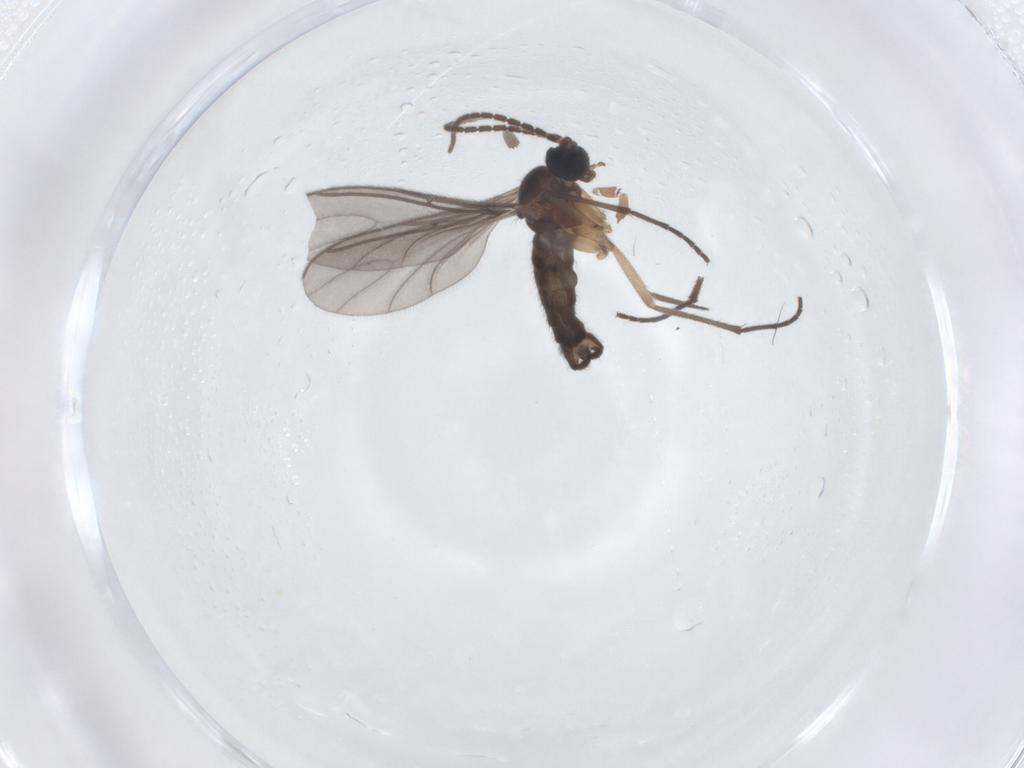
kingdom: Animalia
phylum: Arthropoda
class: Insecta
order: Diptera
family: Ceratopogonidae
